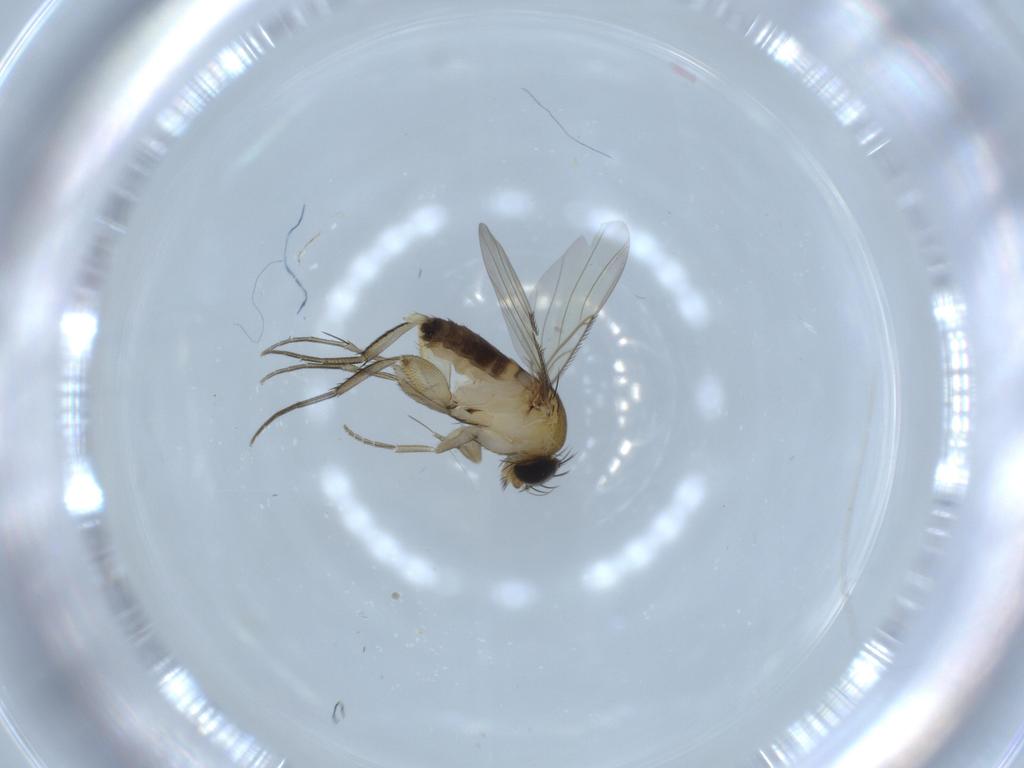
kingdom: Animalia
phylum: Arthropoda
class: Insecta
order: Diptera
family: Phoridae
